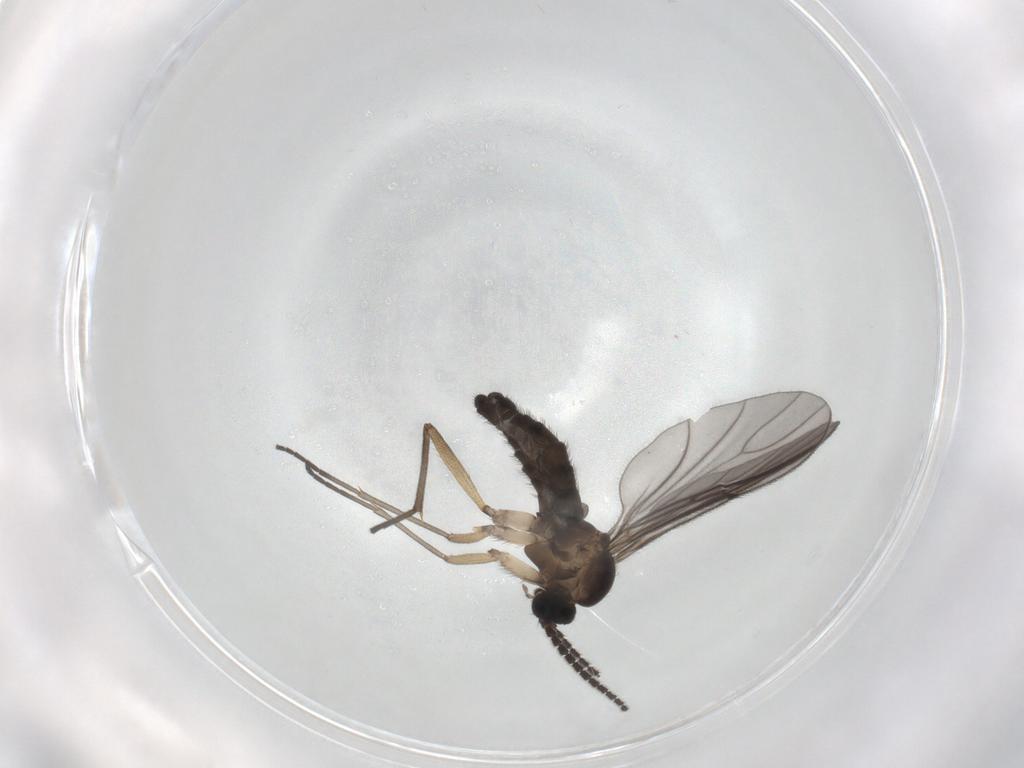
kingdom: Animalia
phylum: Arthropoda
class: Insecta
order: Diptera
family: Sciaridae
